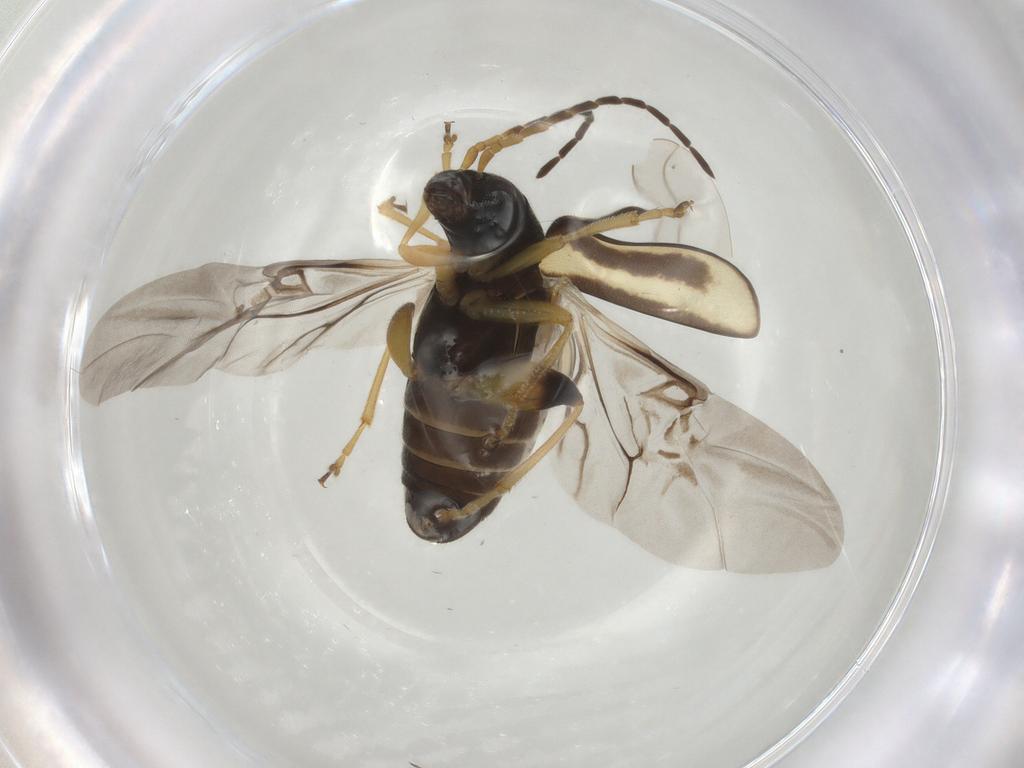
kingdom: Animalia
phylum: Arthropoda
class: Insecta
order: Coleoptera
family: Chrysomelidae
